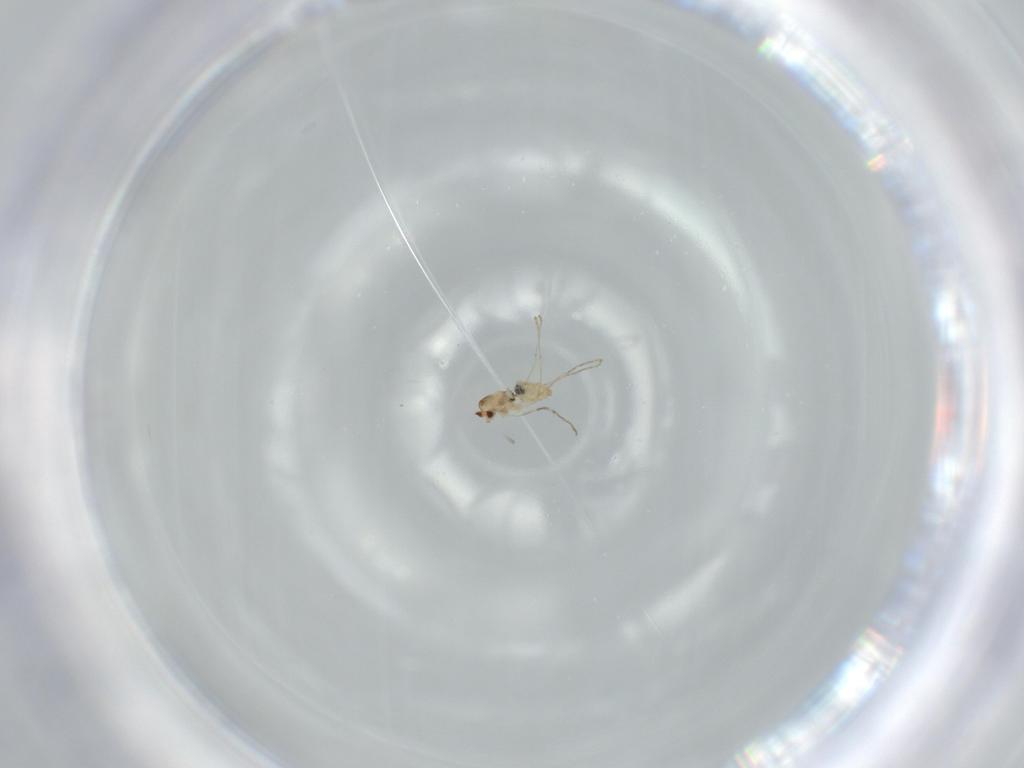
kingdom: Animalia
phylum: Arthropoda
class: Insecta
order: Diptera
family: Cecidomyiidae
